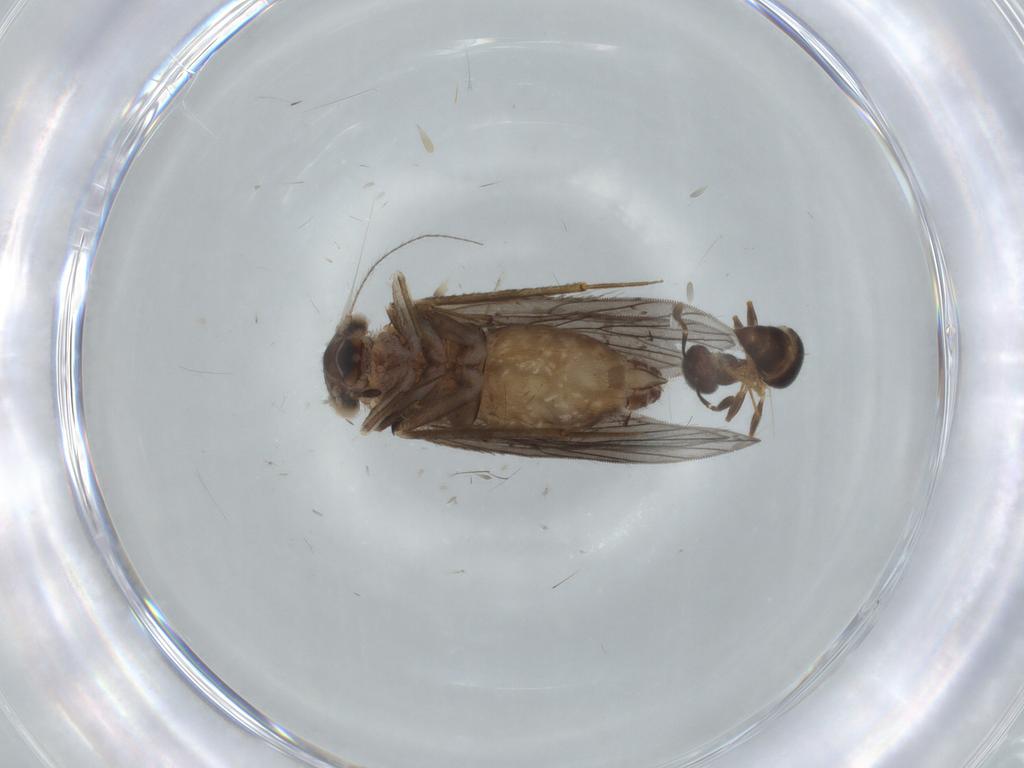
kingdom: Animalia
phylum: Arthropoda
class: Insecta
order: Psocodea
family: Lepidopsocidae
